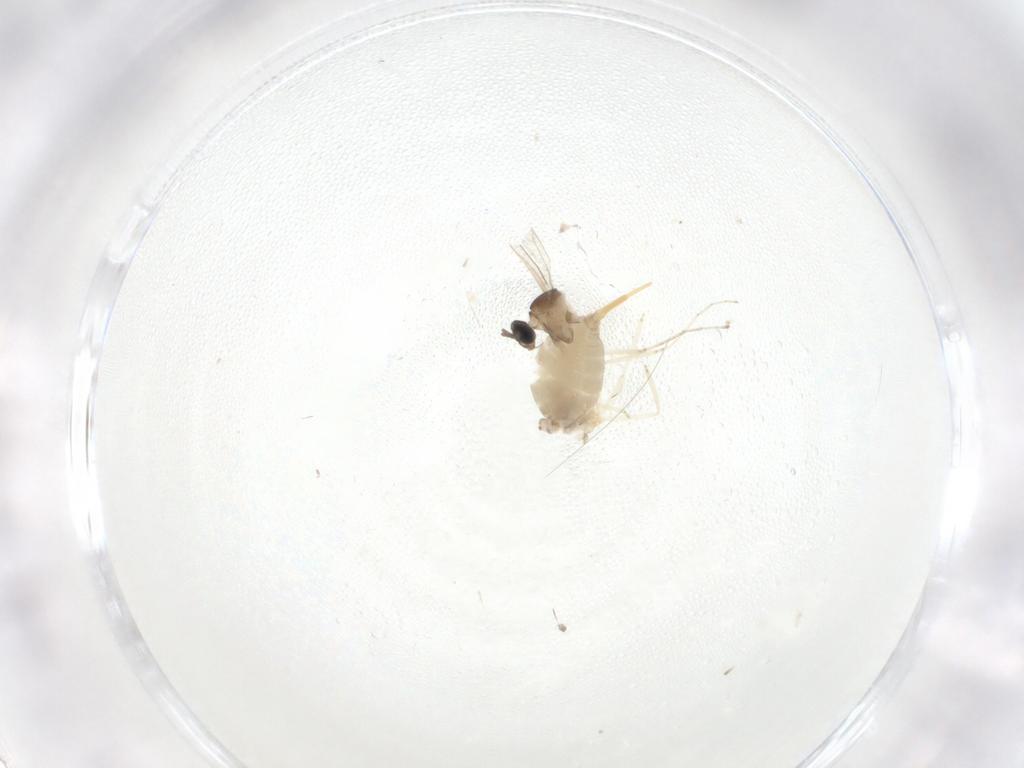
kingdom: Animalia
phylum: Arthropoda
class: Insecta
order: Diptera
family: Cecidomyiidae
